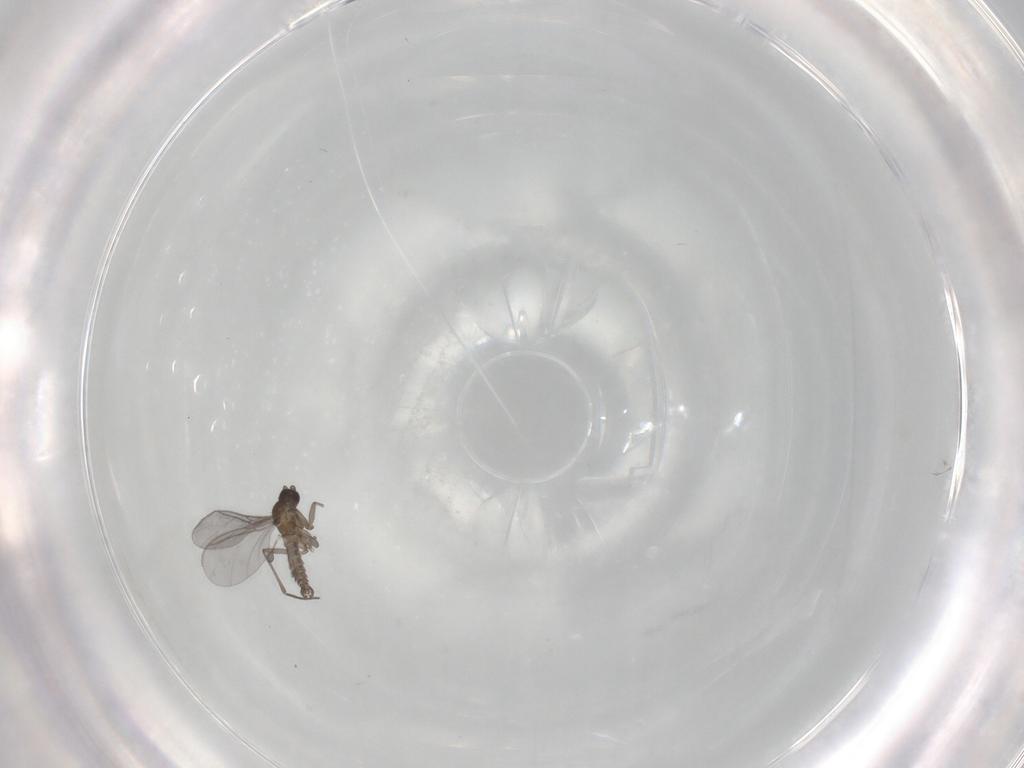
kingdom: Animalia
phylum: Arthropoda
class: Insecta
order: Diptera
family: Sciaridae
